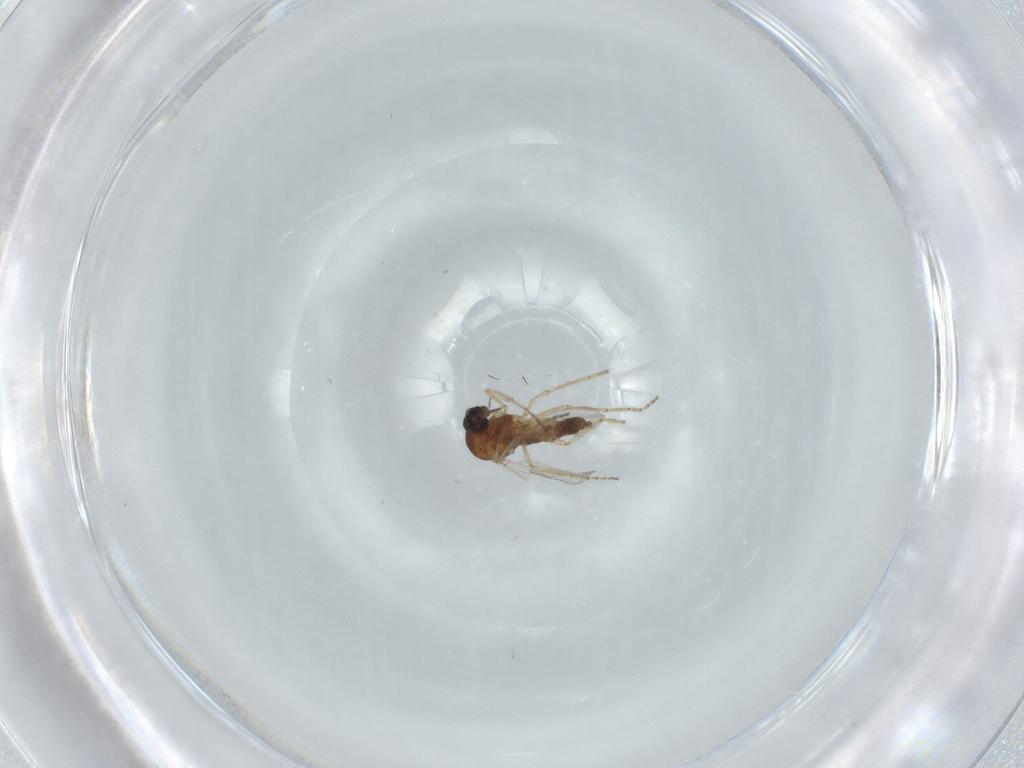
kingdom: Animalia
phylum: Arthropoda
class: Insecta
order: Diptera
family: Ceratopogonidae
